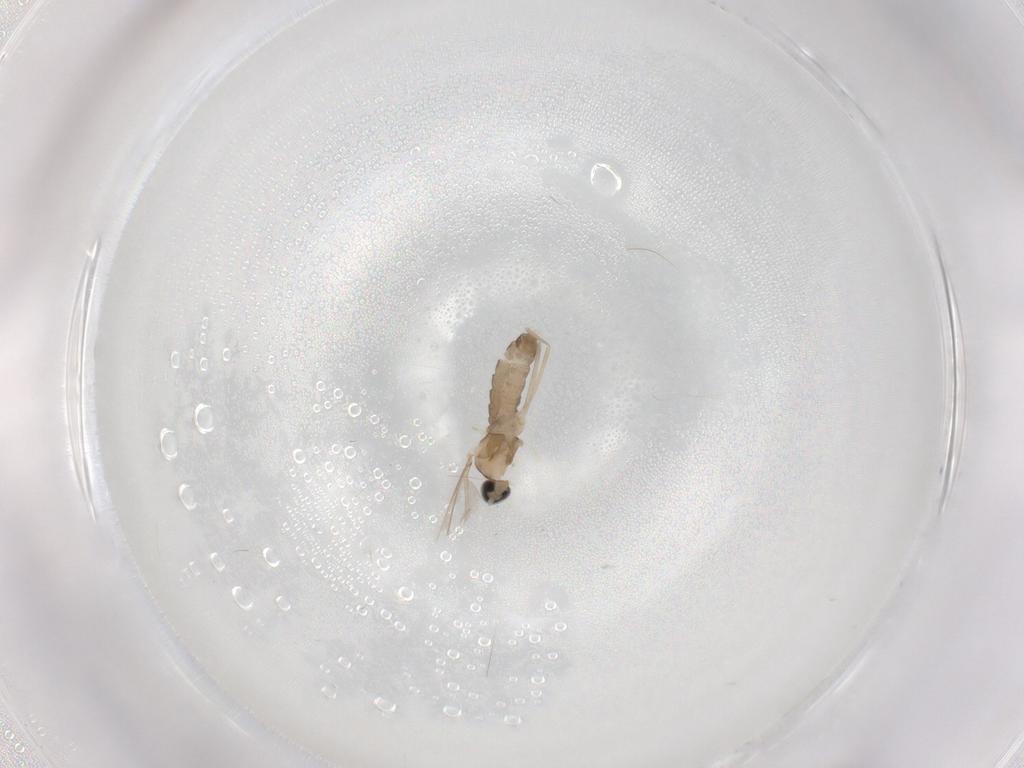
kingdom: Animalia
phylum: Arthropoda
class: Insecta
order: Diptera
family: Cecidomyiidae
